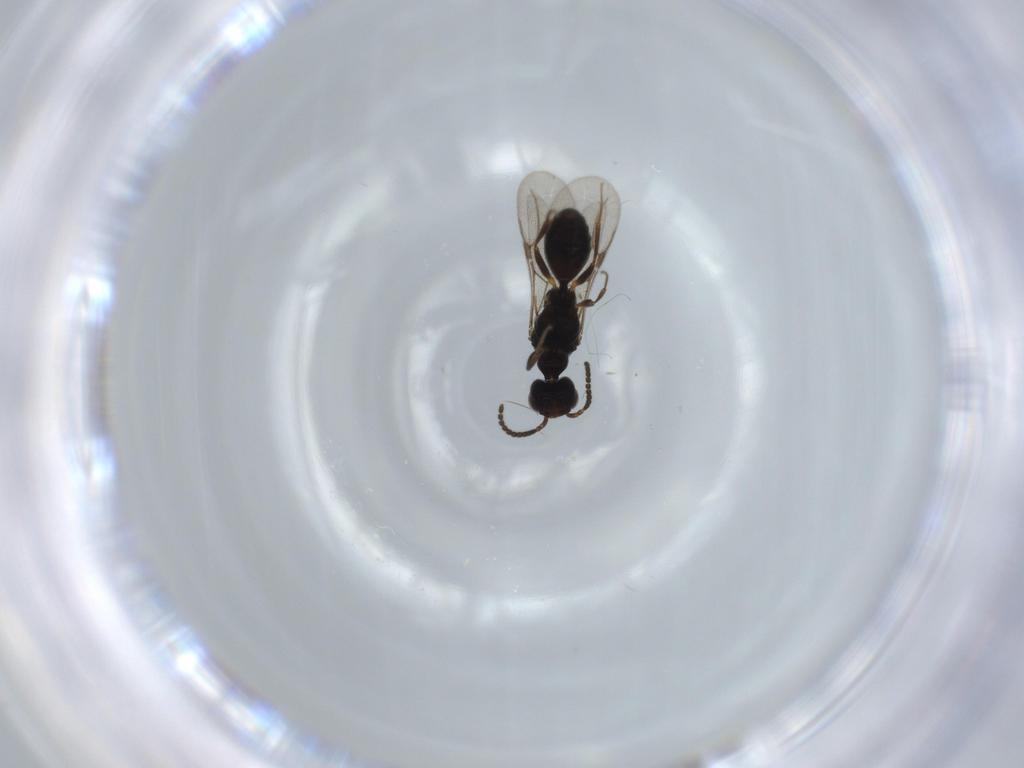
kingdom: Animalia
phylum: Arthropoda
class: Insecta
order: Hymenoptera
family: Bethylidae
